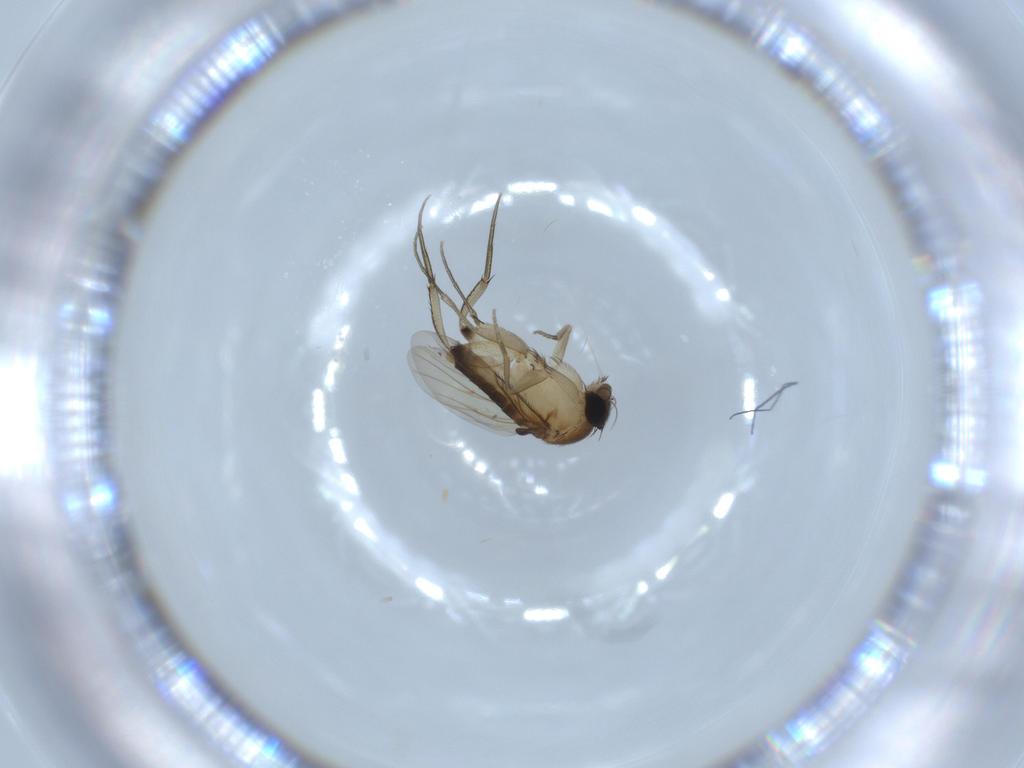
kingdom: Animalia
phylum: Arthropoda
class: Insecta
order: Diptera
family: Phoridae
